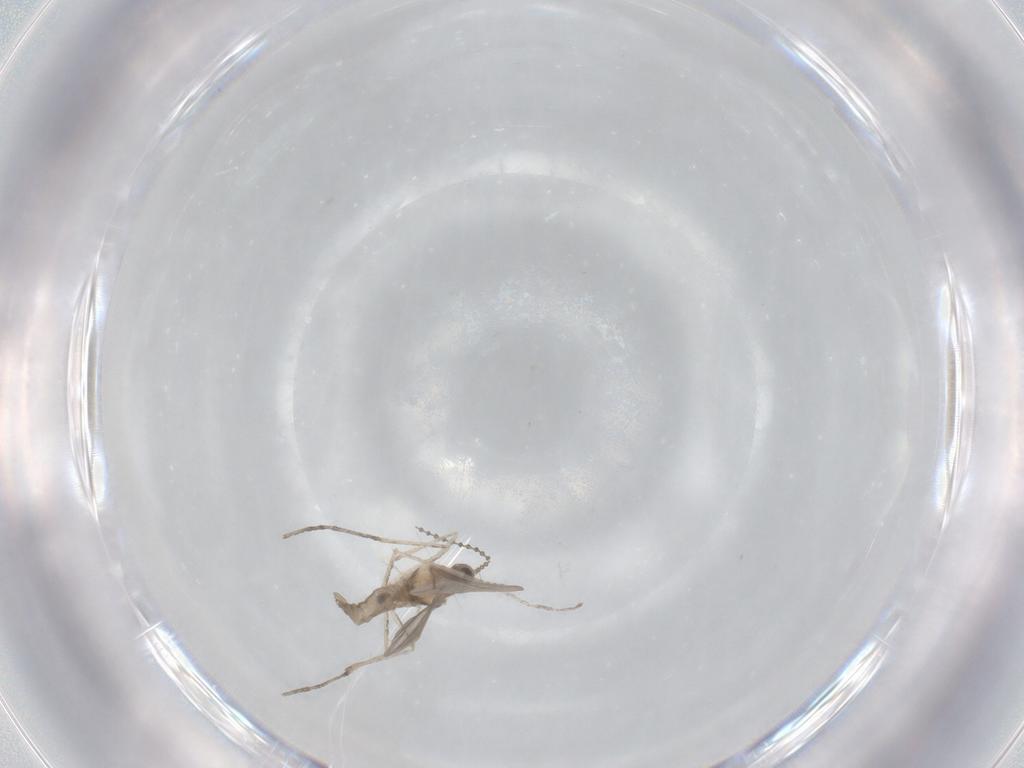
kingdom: Animalia
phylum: Arthropoda
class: Insecta
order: Diptera
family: Cecidomyiidae
